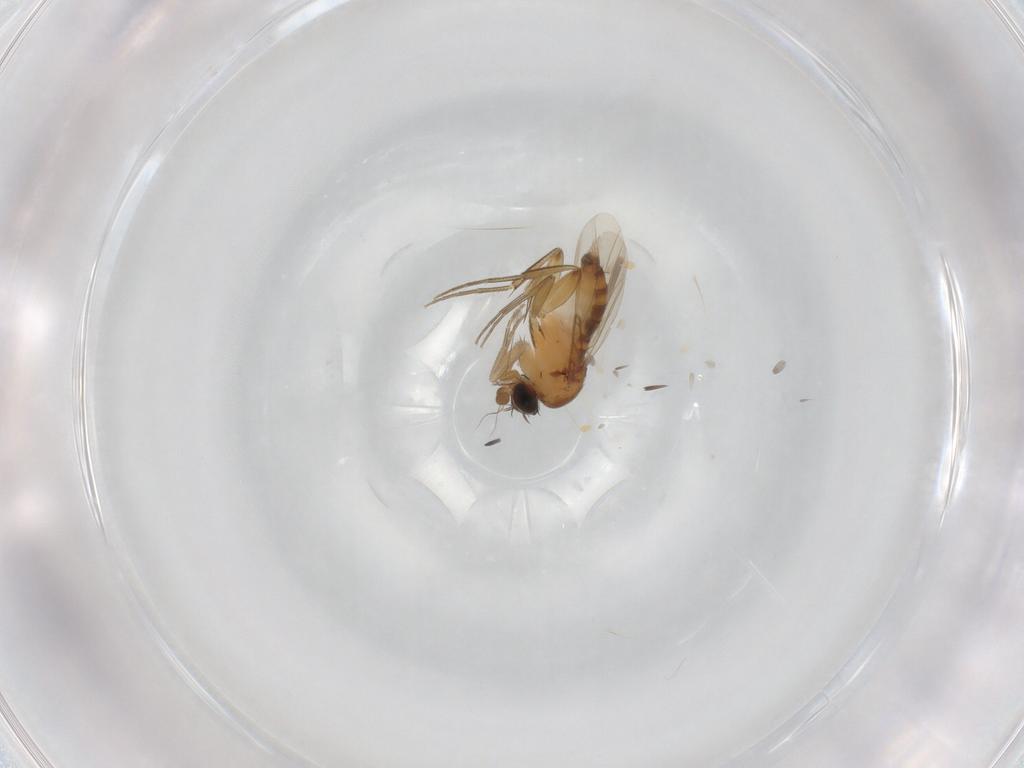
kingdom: Animalia
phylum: Arthropoda
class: Insecta
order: Diptera
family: Phoridae
